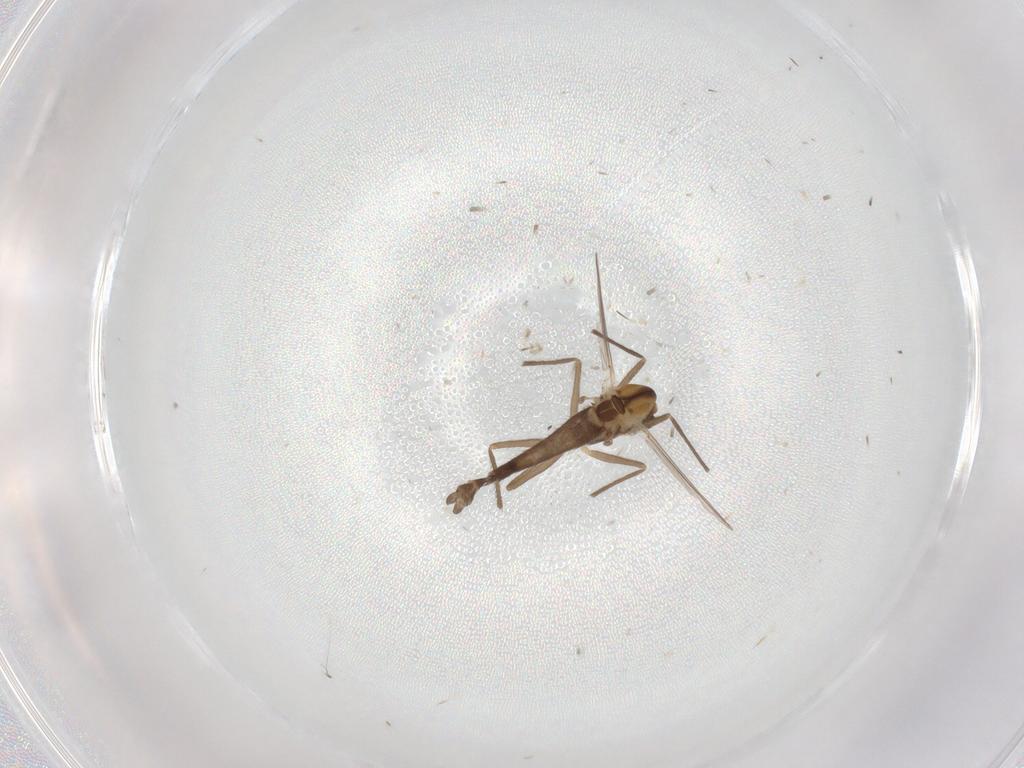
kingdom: Animalia
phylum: Arthropoda
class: Insecta
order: Diptera
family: Chironomidae
